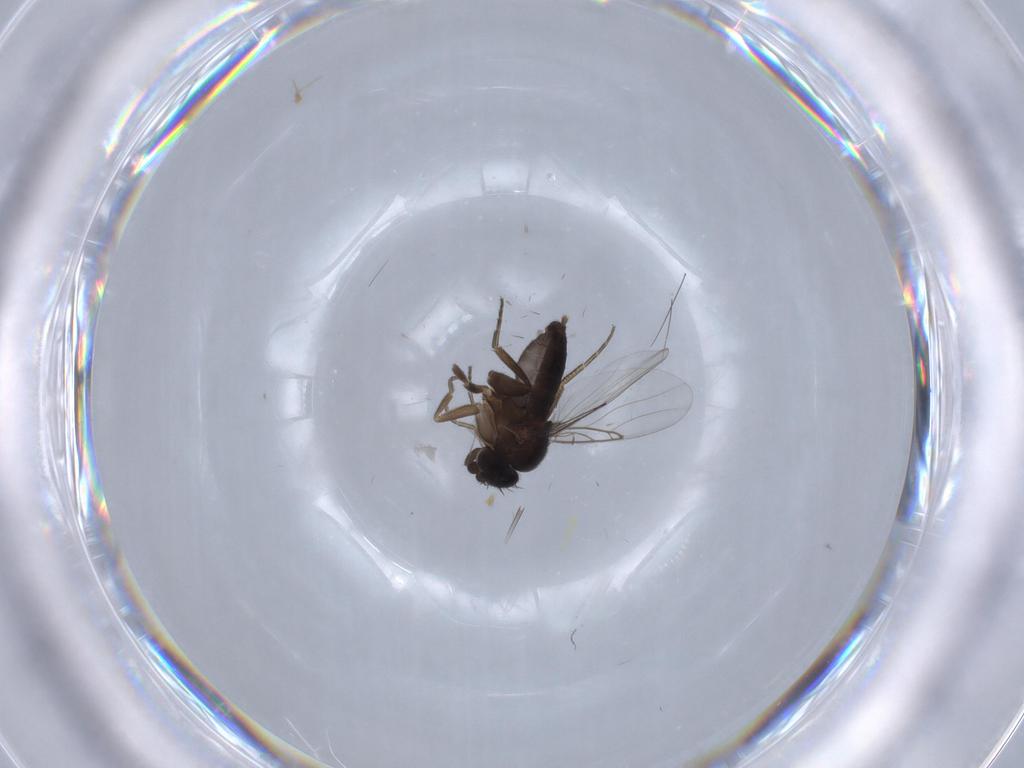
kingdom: Animalia
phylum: Arthropoda
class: Insecta
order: Diptera
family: Phoridae
